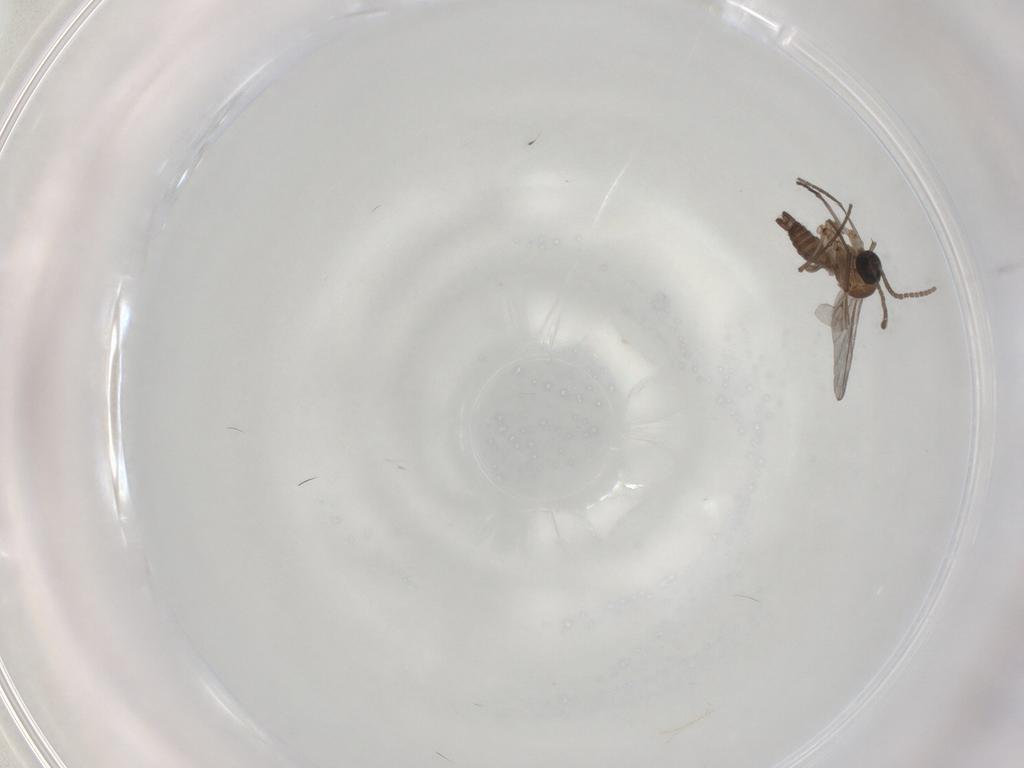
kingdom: Animalia
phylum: Arthropoda
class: Insecta
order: Diptera
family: Sciaridae
